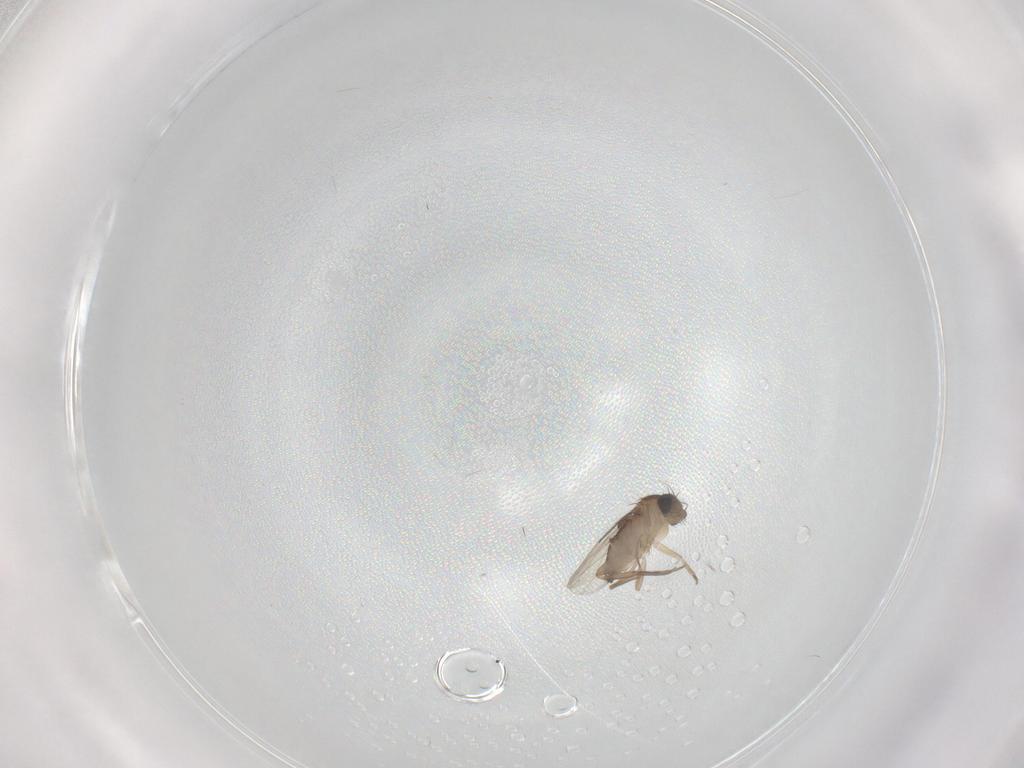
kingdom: Animalia
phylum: Arthropoda
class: Insecta
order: Diptera
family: Phoridae
